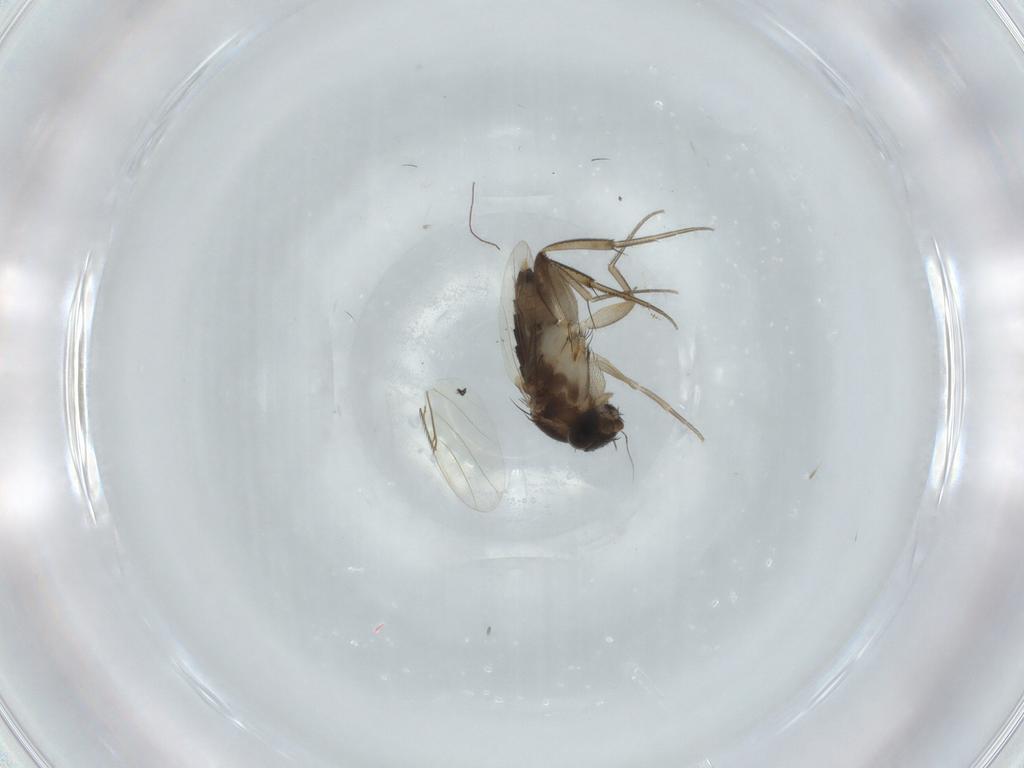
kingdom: Animalia
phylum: Arthropoda
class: Insecta
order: Diptera
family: Phoridae
